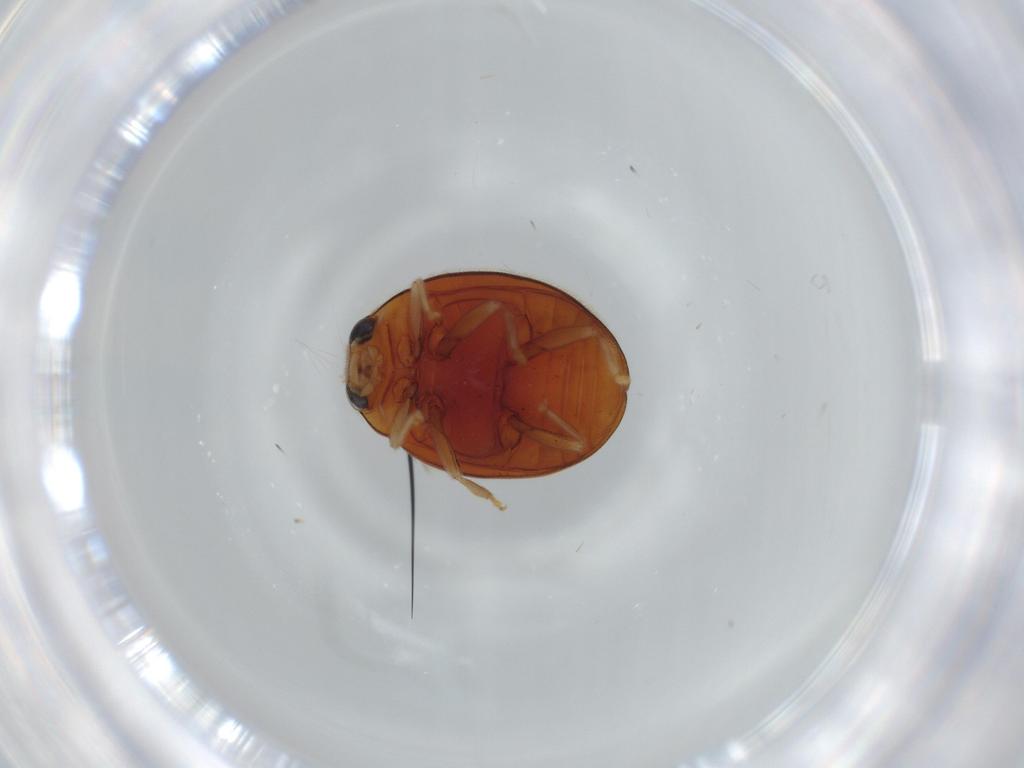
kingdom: Animalia
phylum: Arthropoda
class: Insecta
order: Coleoptera
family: Coccinellidae
